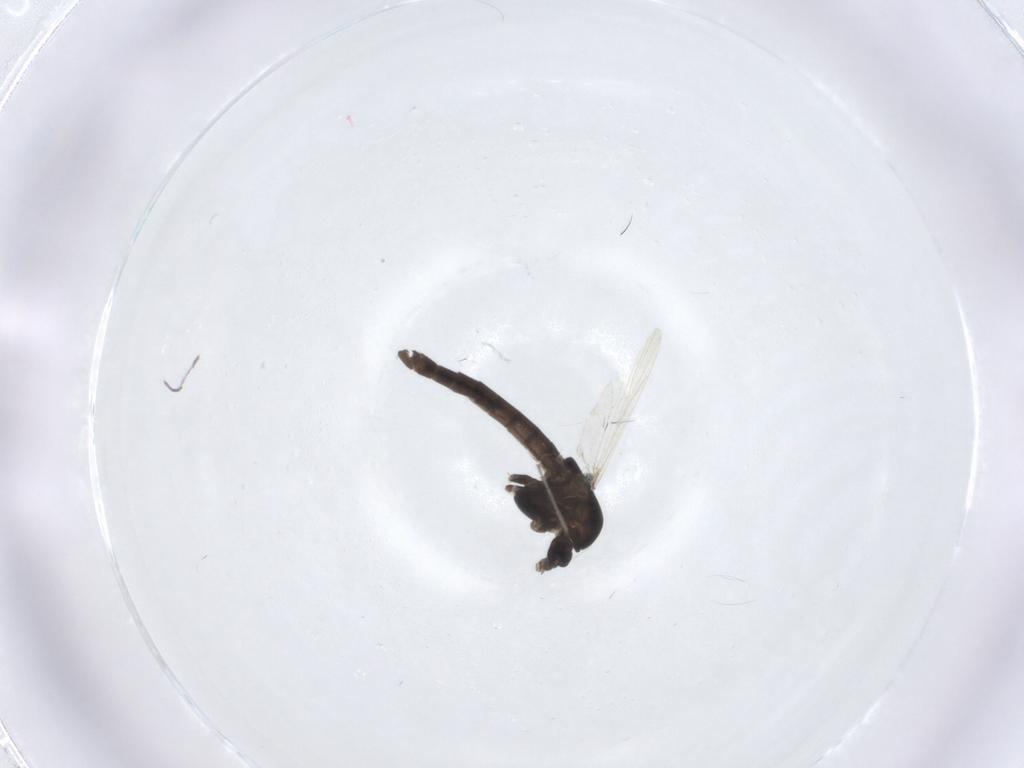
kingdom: Animalia
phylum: Arthropoda
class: Insecta
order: Diptera
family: Chironomidae
